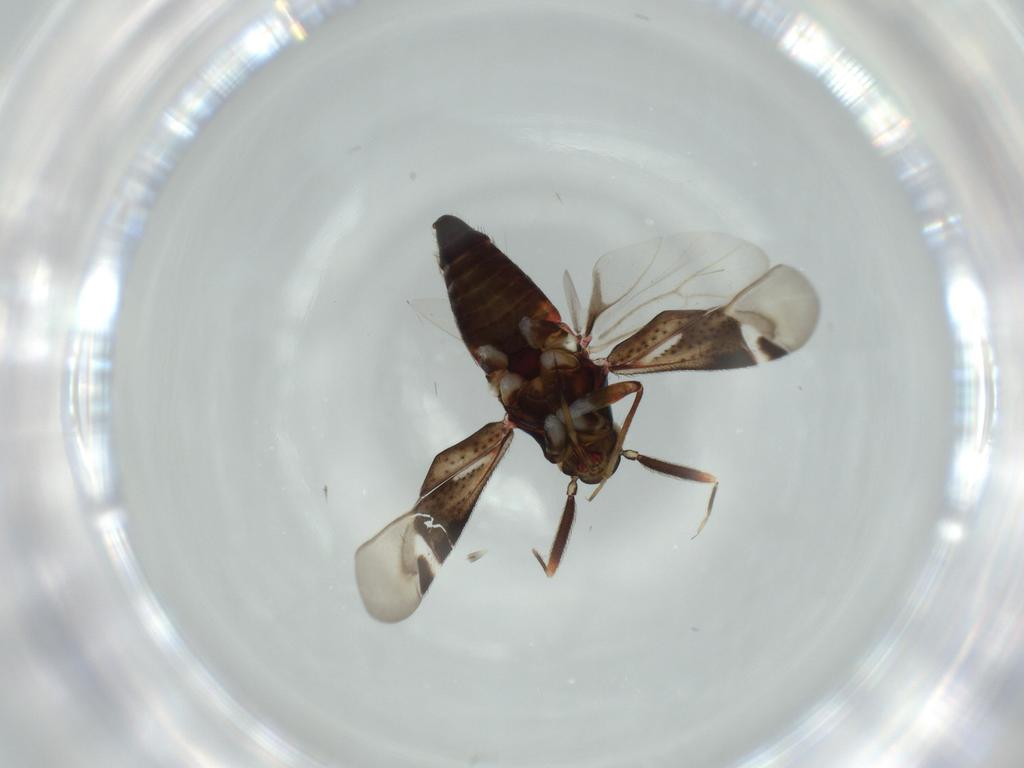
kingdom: Animalia
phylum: Arthropoda
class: Insecta
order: Hemiptera
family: Miridae
